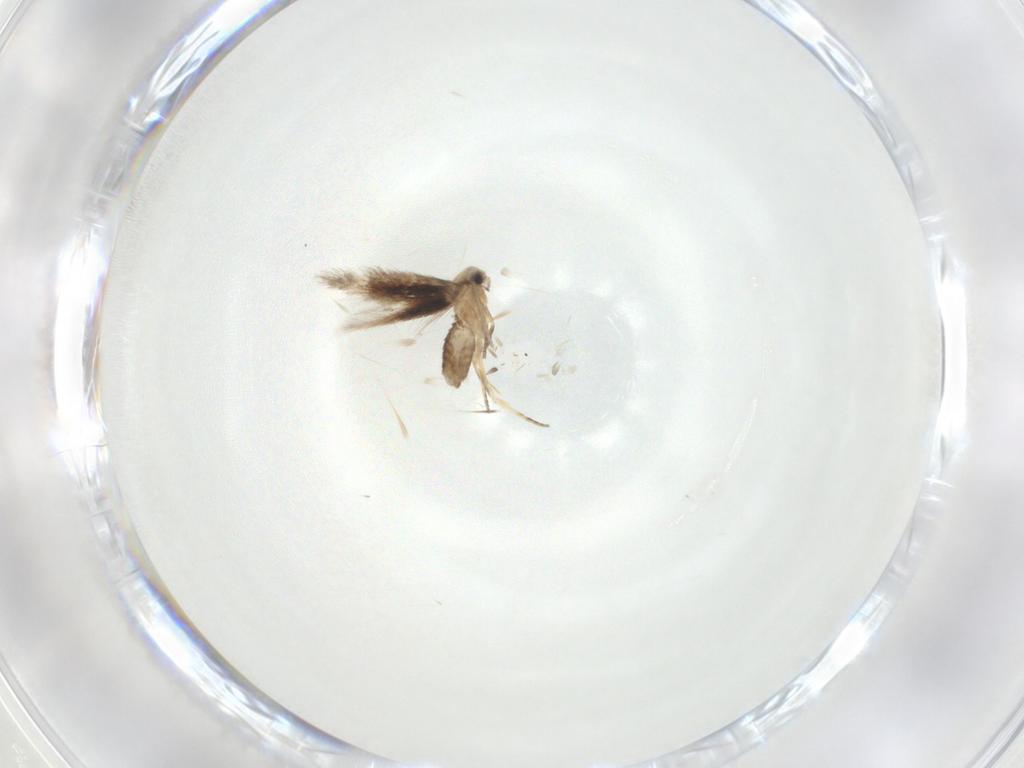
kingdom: Animalia
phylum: Arthropoda
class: Insecta
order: Lepidoptera
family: Nepticulidae
